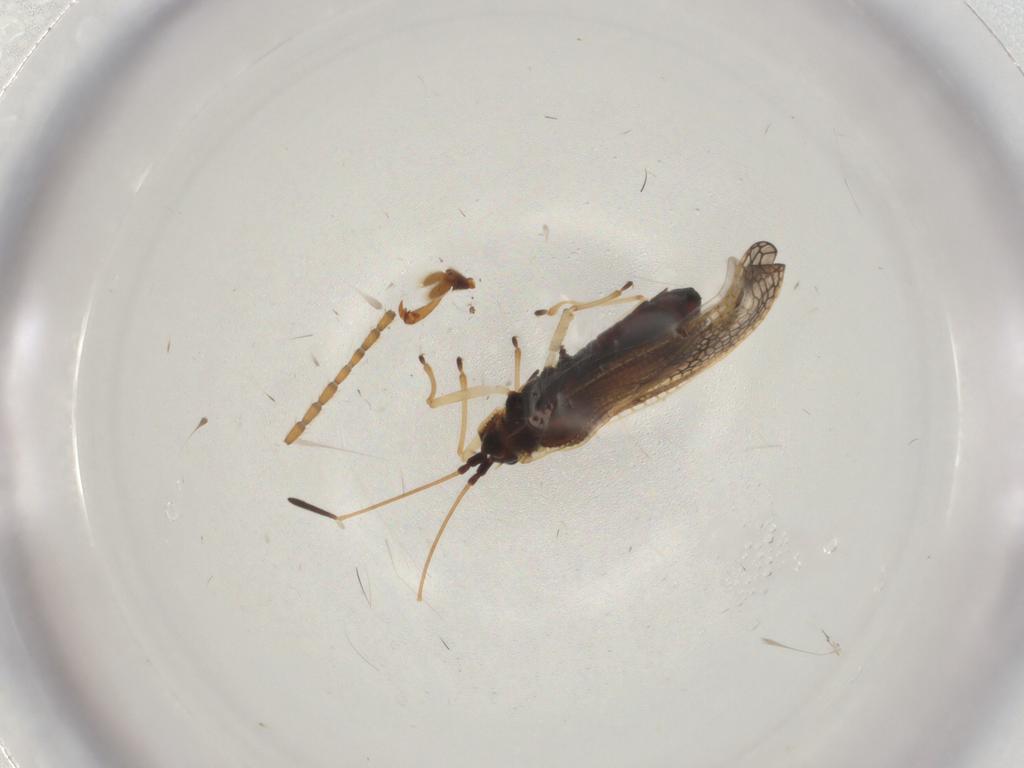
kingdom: Animalia
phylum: Arthropoda
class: Insecta
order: Hemiptera
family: Tingidae
